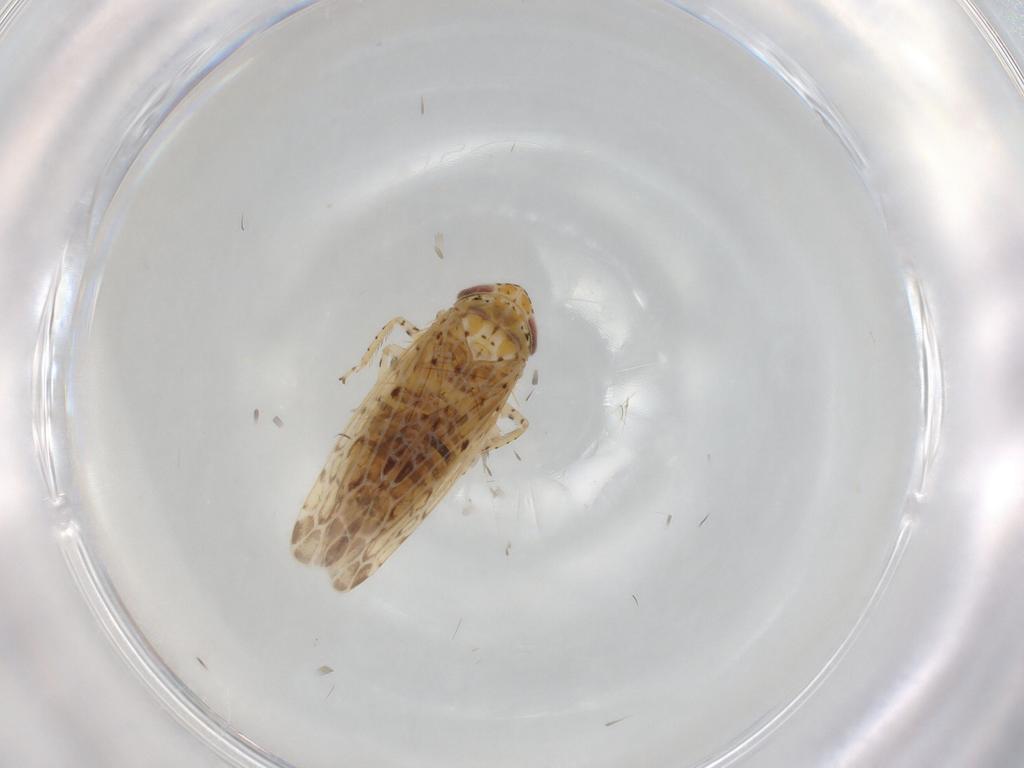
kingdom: Animalia
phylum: Arthropoda
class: Insecta
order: Hemiptera
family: Cicadellidae
